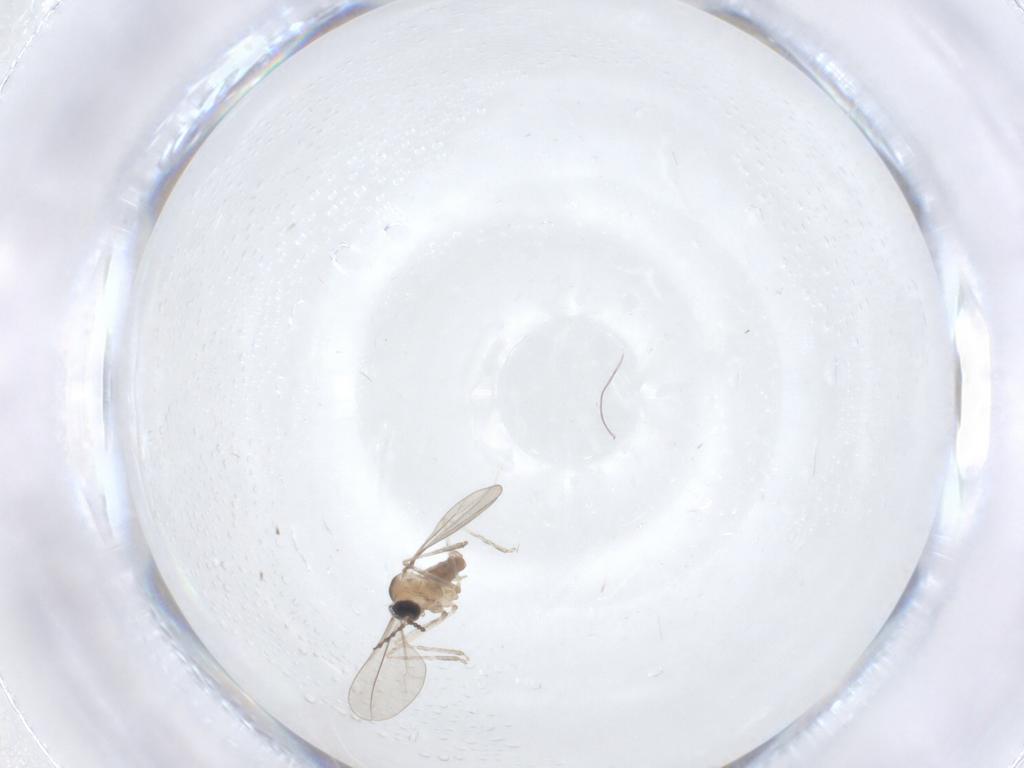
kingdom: Animalia
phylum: Arthropoda
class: Insecta
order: Diptera
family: Cecidomyiidae
